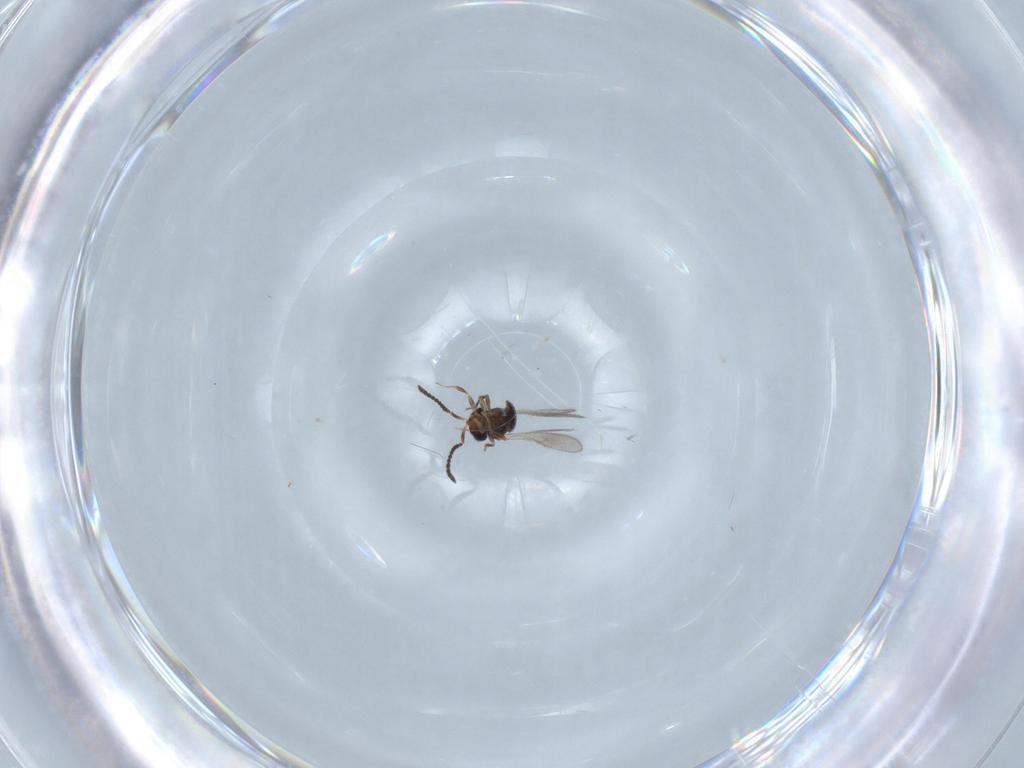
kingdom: Animalia
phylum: Arthropoda
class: Insecta
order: Hymenoptera
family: Scelionidae
